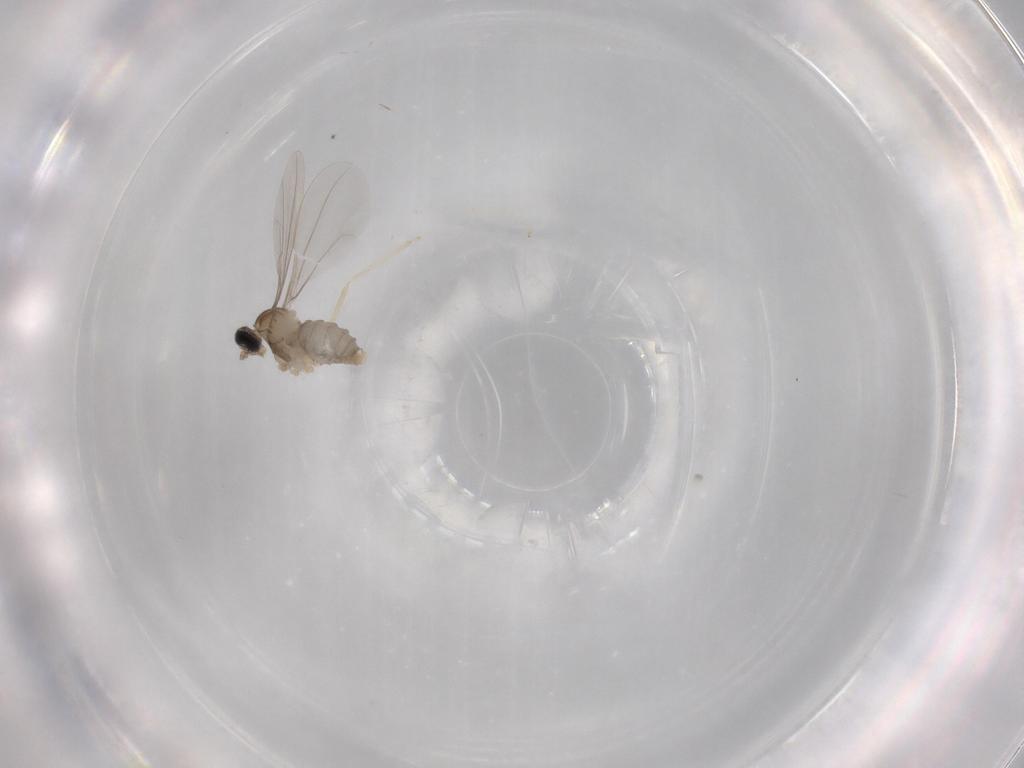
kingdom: Animalia
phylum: Arthropoda
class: Insecta
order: Diptera
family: Cecidomyiidae
